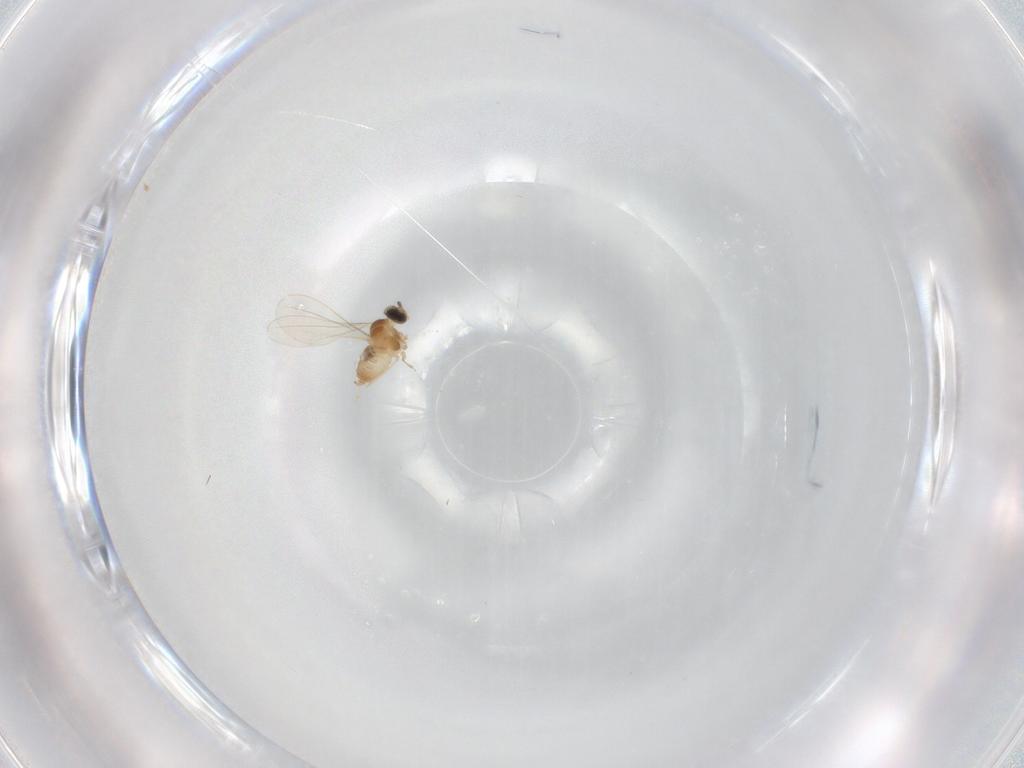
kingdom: Animalia
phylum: Arthropoda
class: Insecta
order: Diptera
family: Cecidomyiidae
